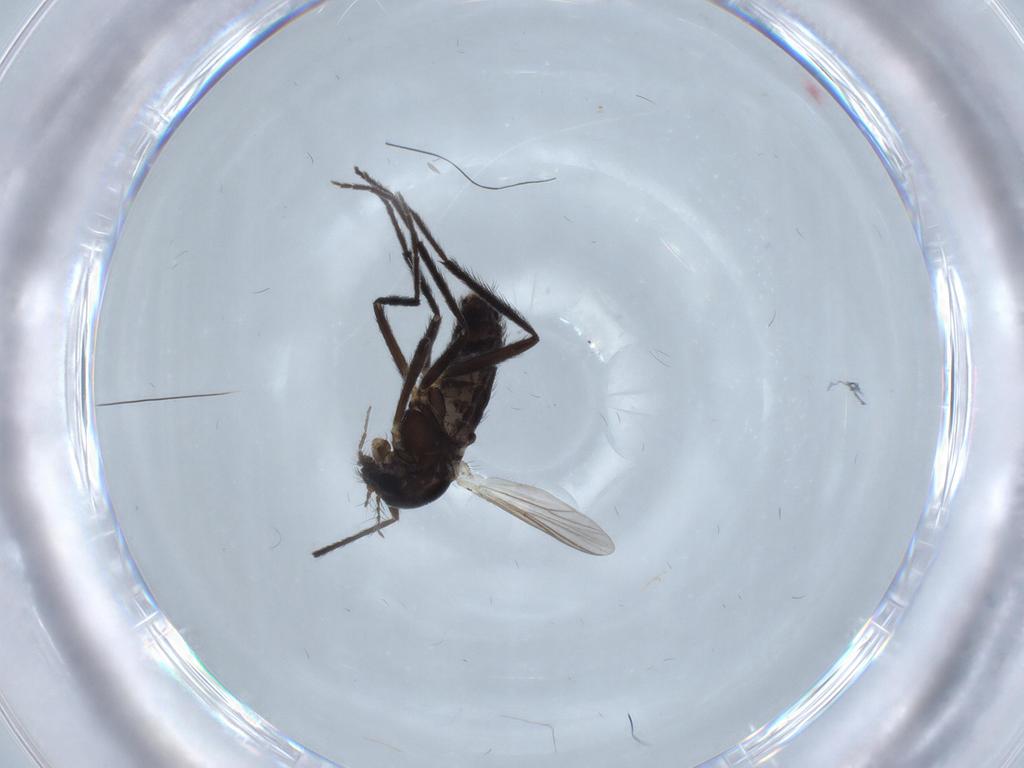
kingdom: Animalia
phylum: Arthropoda
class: Insecta
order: Diptera
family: Chironomidae
